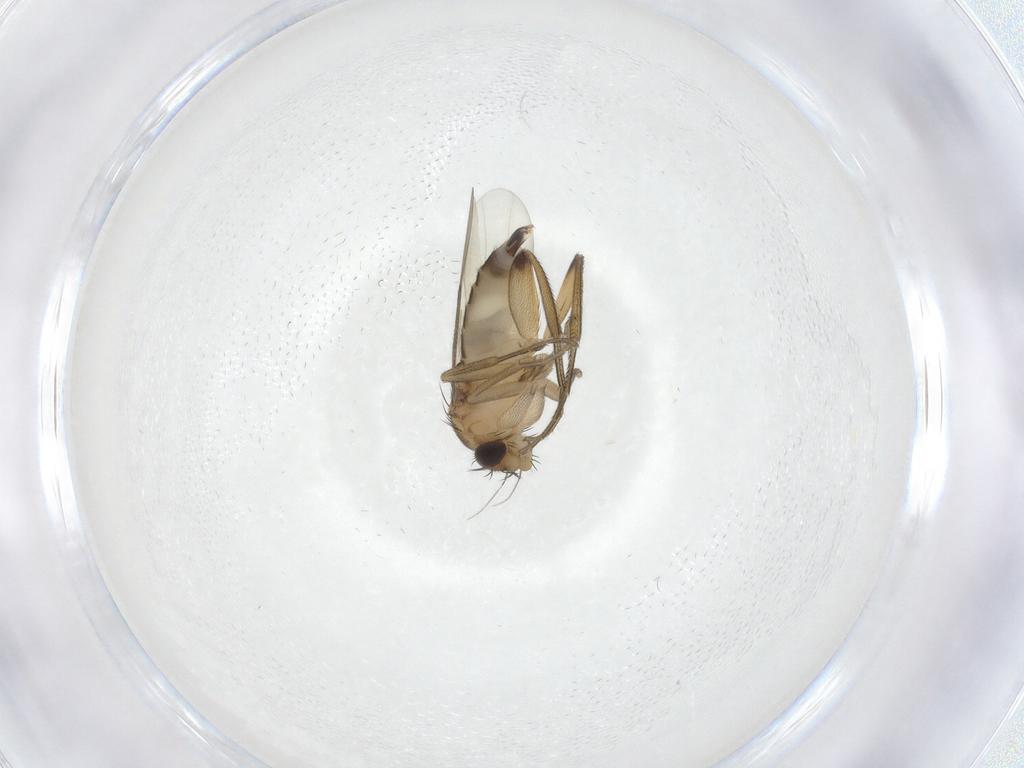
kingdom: Animalia
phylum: Arthropoda
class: Insecta
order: Diptera
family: Phoridae
